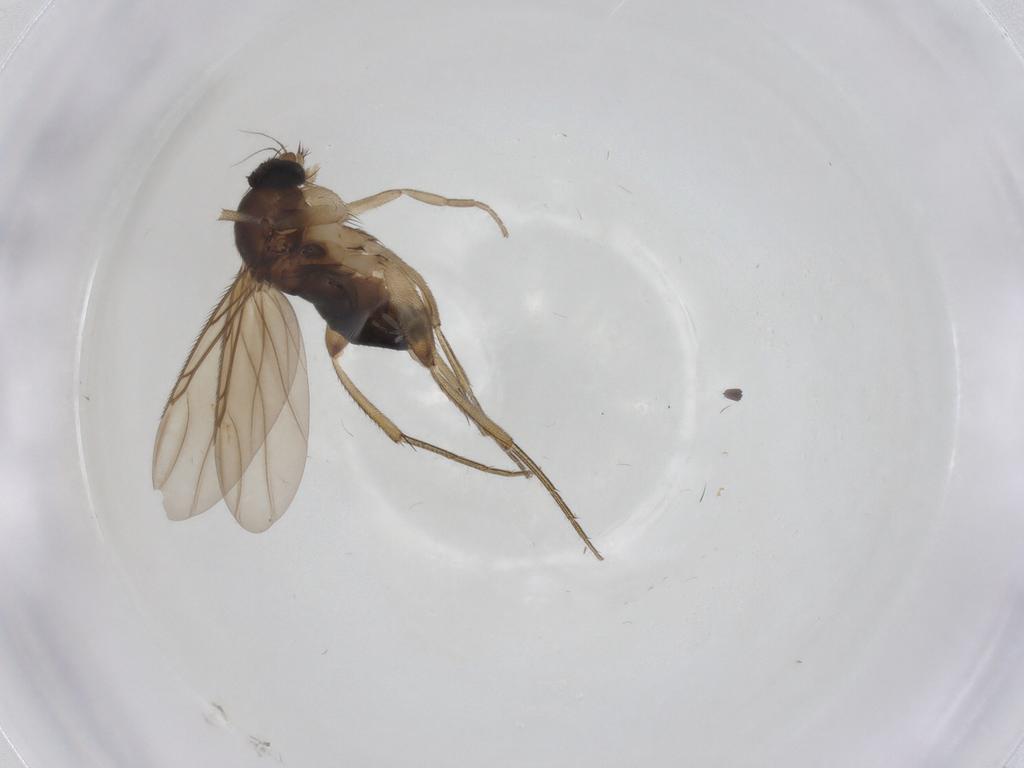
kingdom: Animalia
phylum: Arthropoda
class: Insecta
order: Diptera
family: Phoridae
